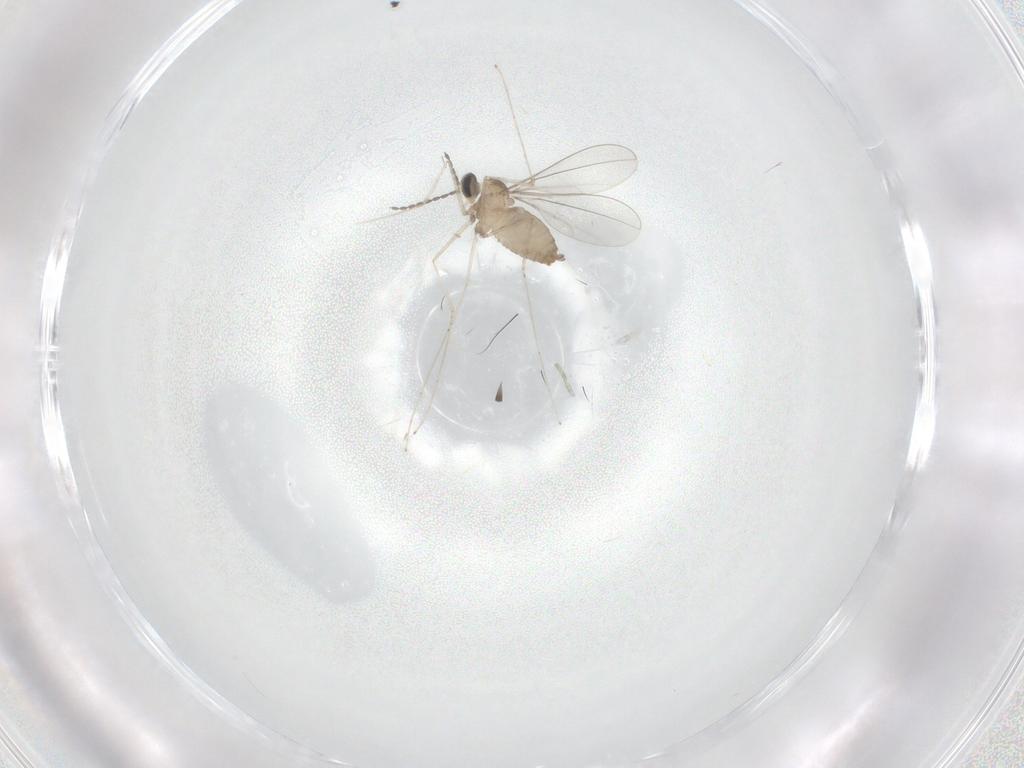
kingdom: Animalia
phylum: Arthropoda
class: Insecta
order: Diptera
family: Cecidomyiidae
